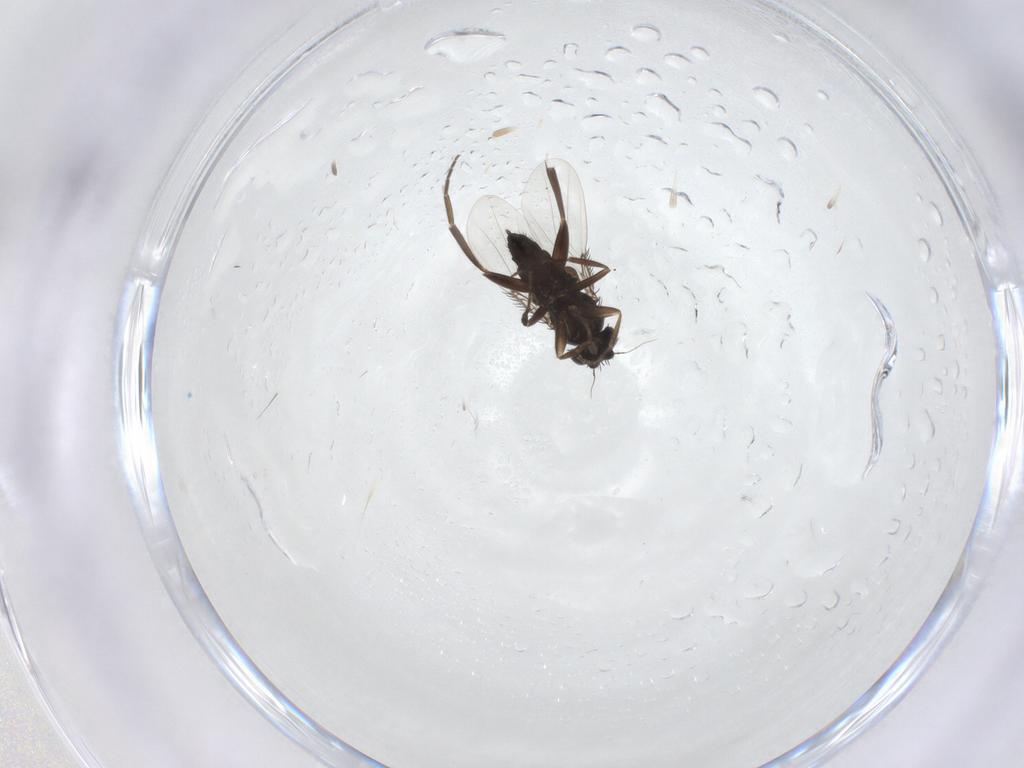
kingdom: Animalia
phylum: Arthropoda
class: Insecta
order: Diptera
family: Phoridae
